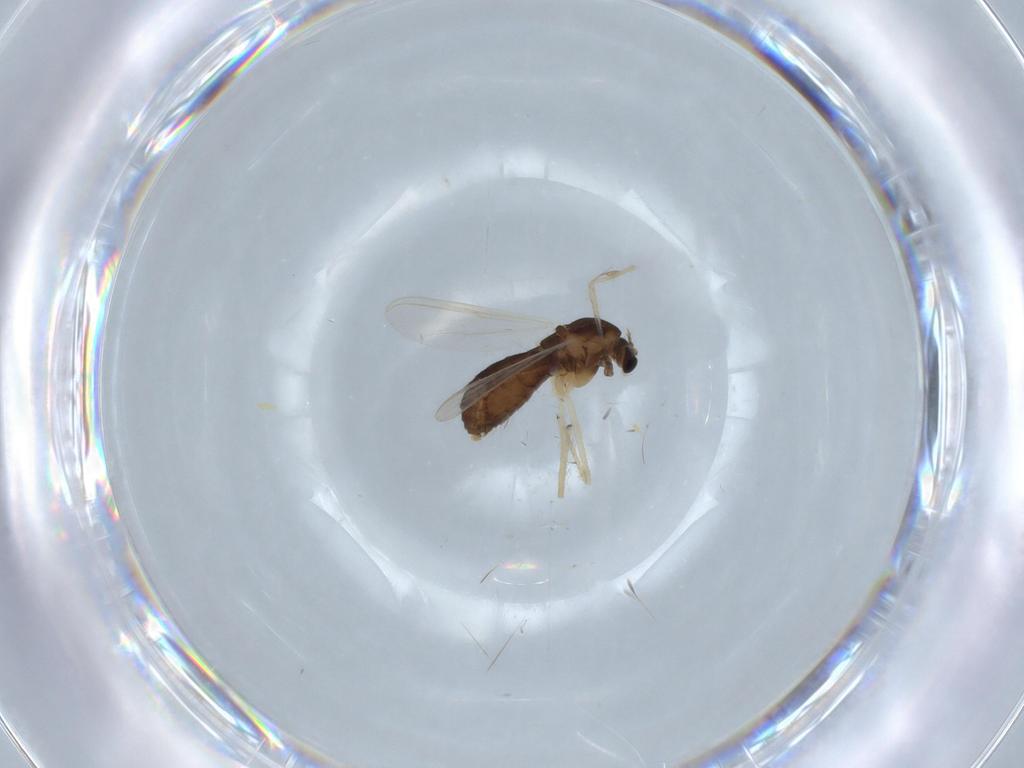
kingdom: Animalia
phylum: Arthropoda
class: Insecta
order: Diptera
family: Chironomidae
